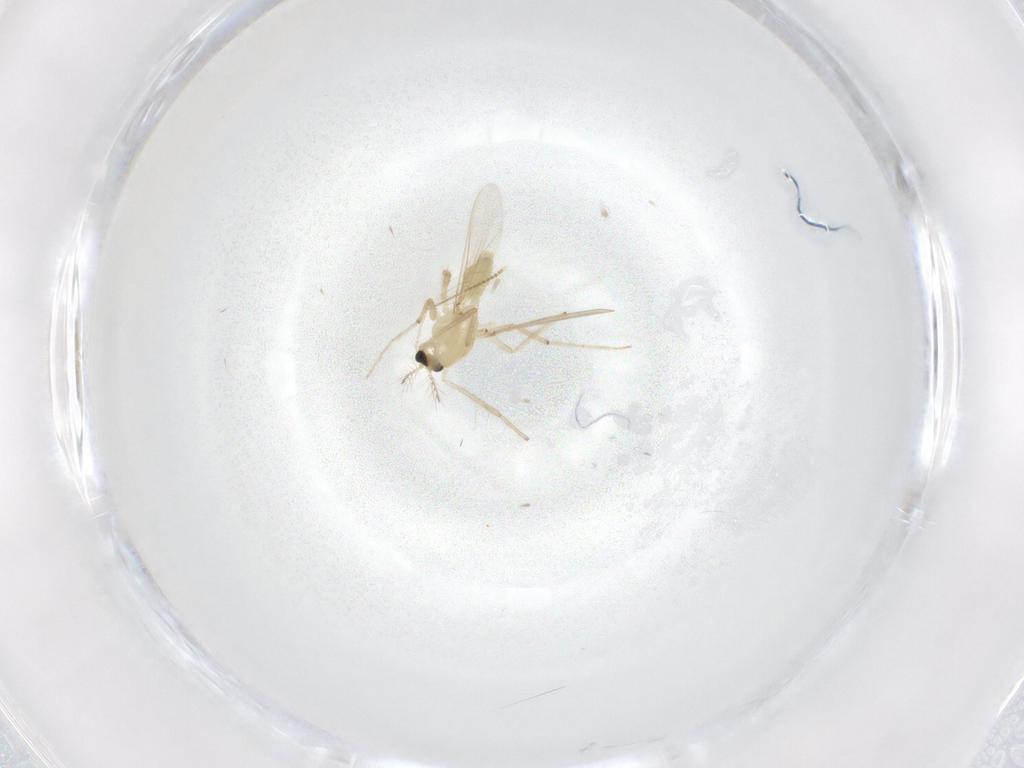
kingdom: Animalia
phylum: Arthropoda
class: Insecta
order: Diptera
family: Chironomidae
